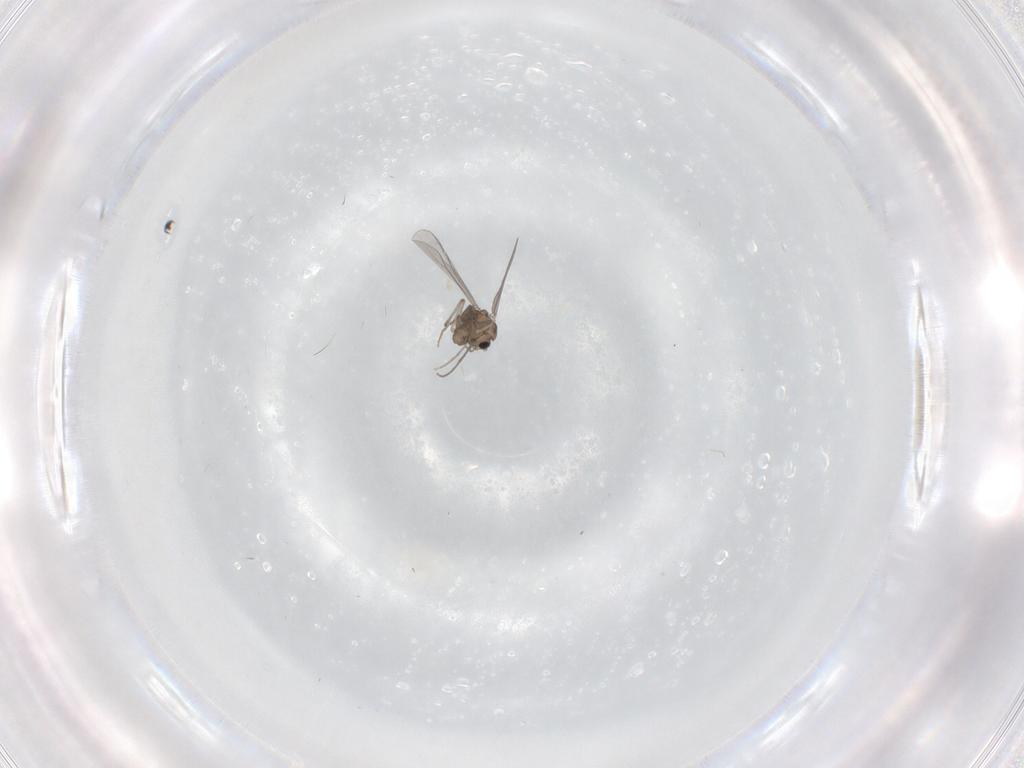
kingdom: Animalia
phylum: Arthropoda
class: Insecta
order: Diptera
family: Chironomidae
